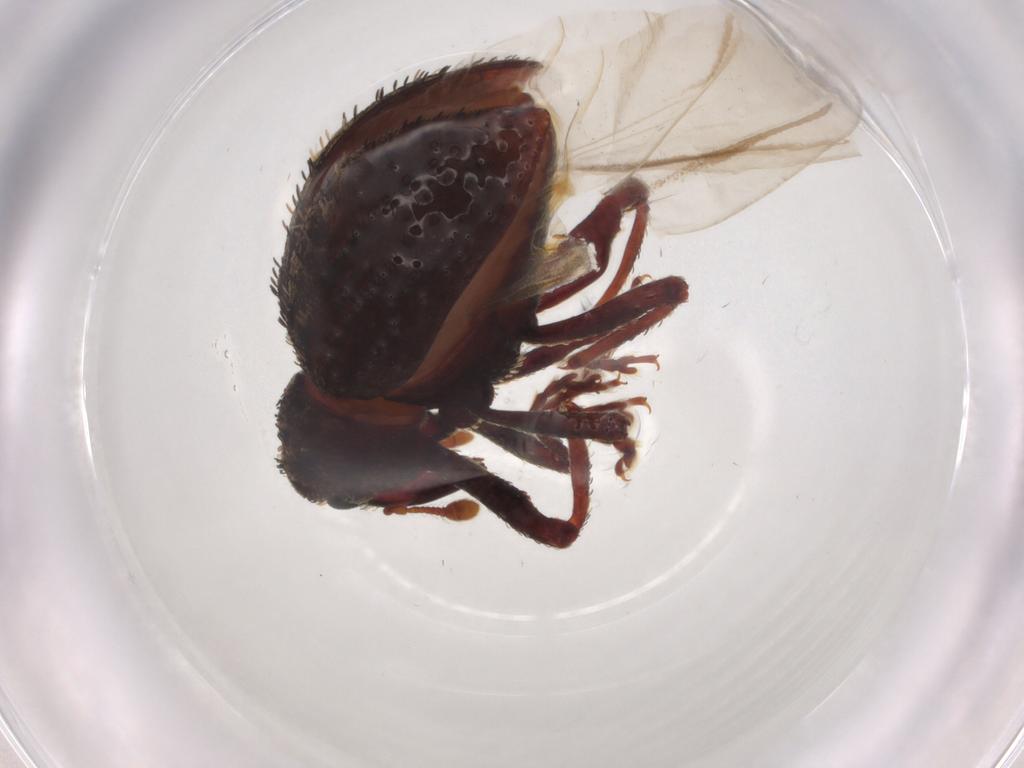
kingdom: Animalia
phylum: Arthropoda
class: Insecta
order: Coleoptera
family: Curculionidae
